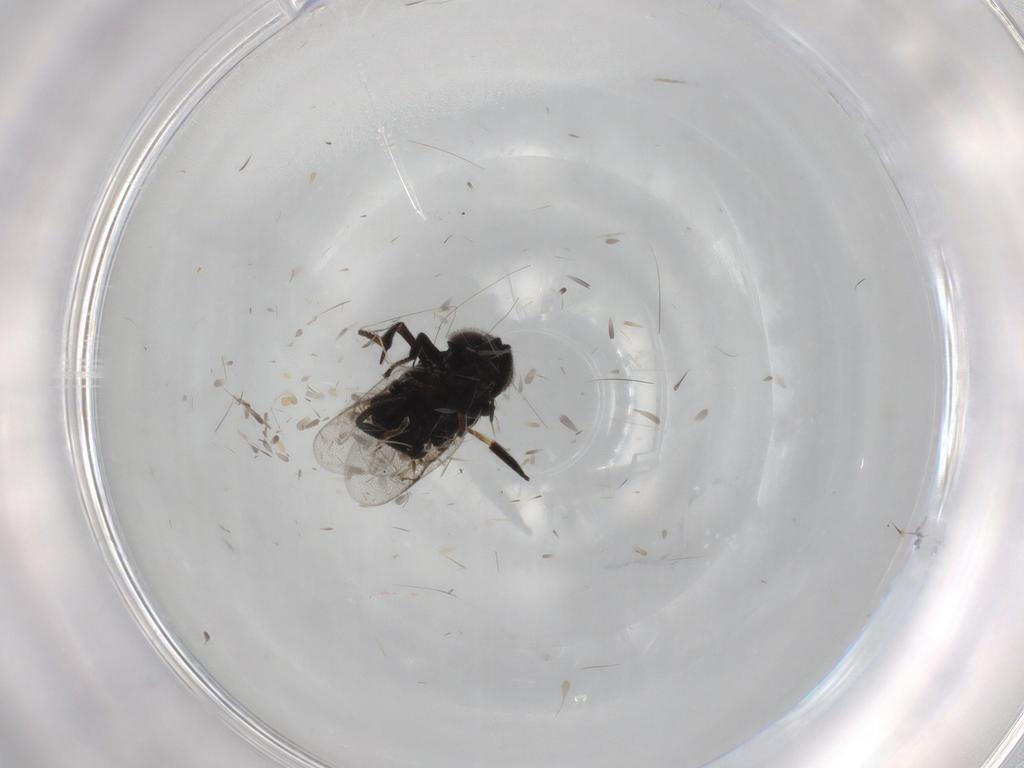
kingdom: Animalia
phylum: Arthropoda
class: Insecta
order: Hymenoptera
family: Encyrtidae
